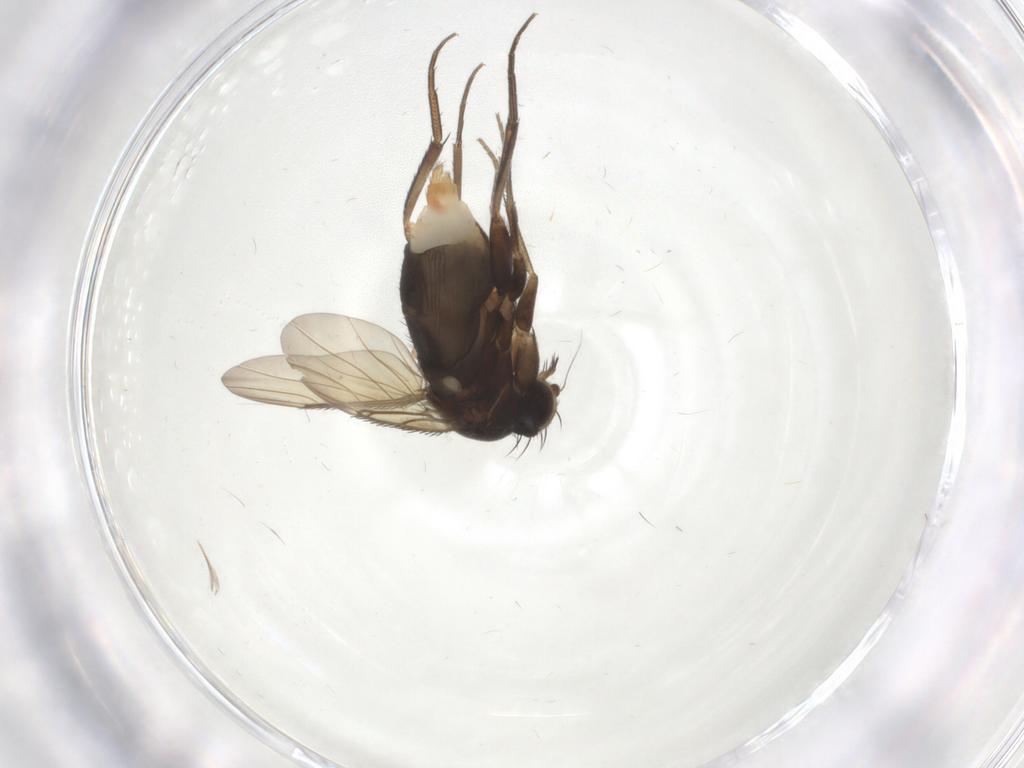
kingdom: Animalia
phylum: Arthropoda
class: Insecta
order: Diptera
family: Phoridae
